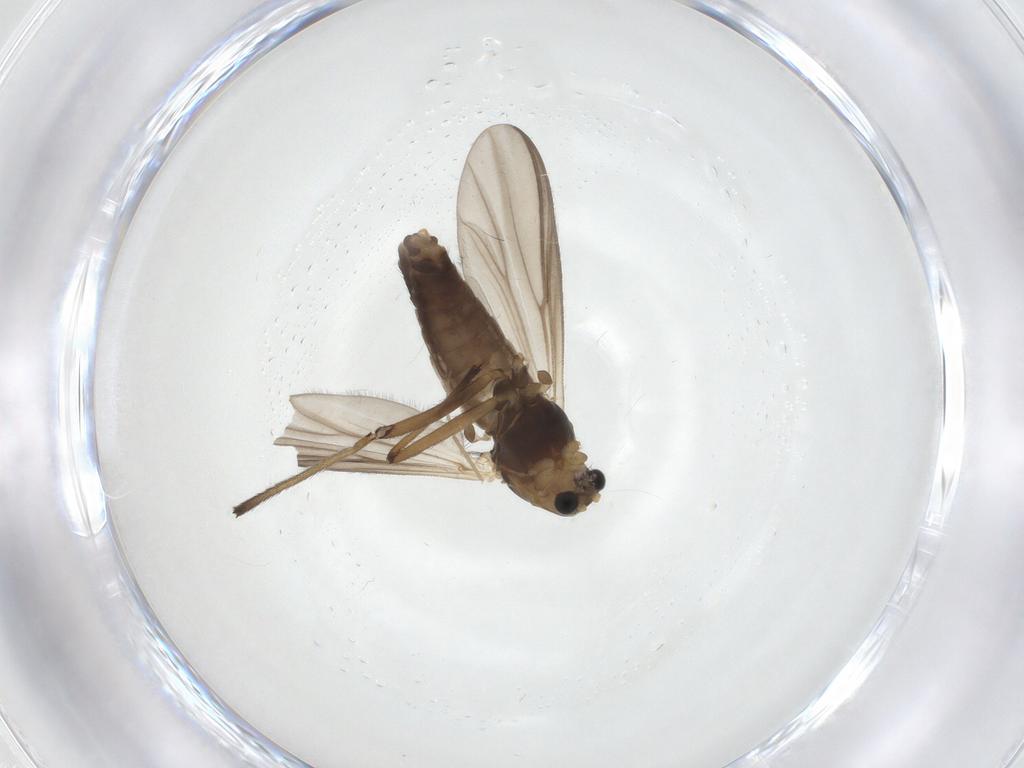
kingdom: Animalia
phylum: Arthropoda
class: Insecta
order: Diptera
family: Chironomidae
